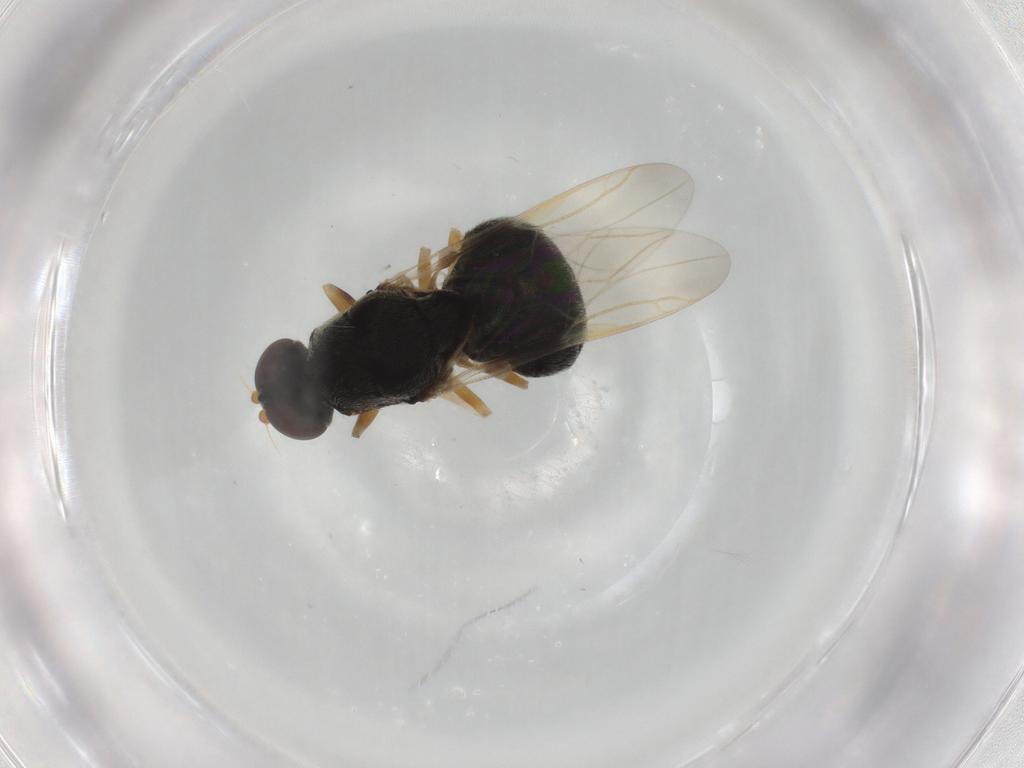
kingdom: Animalia
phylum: Arthropoda
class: Insecta
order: Diptera
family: Stratiomyidae
